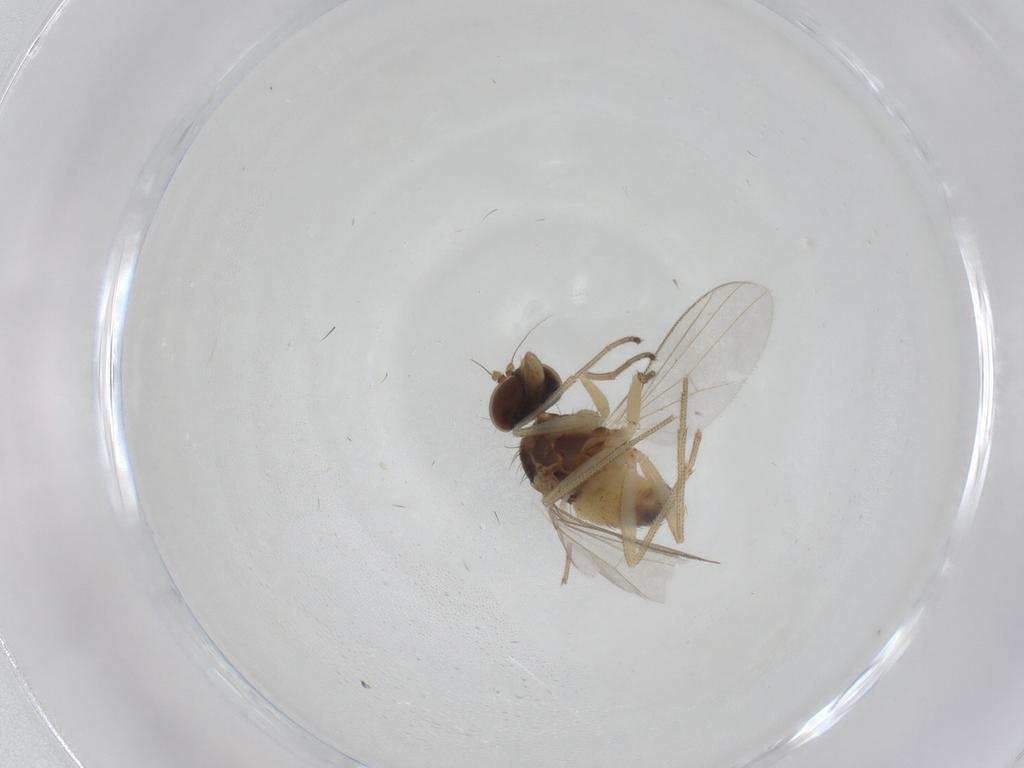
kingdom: Animalia
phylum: Arthropoda
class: Insecta
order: Diptera
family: Dolichopodidae
